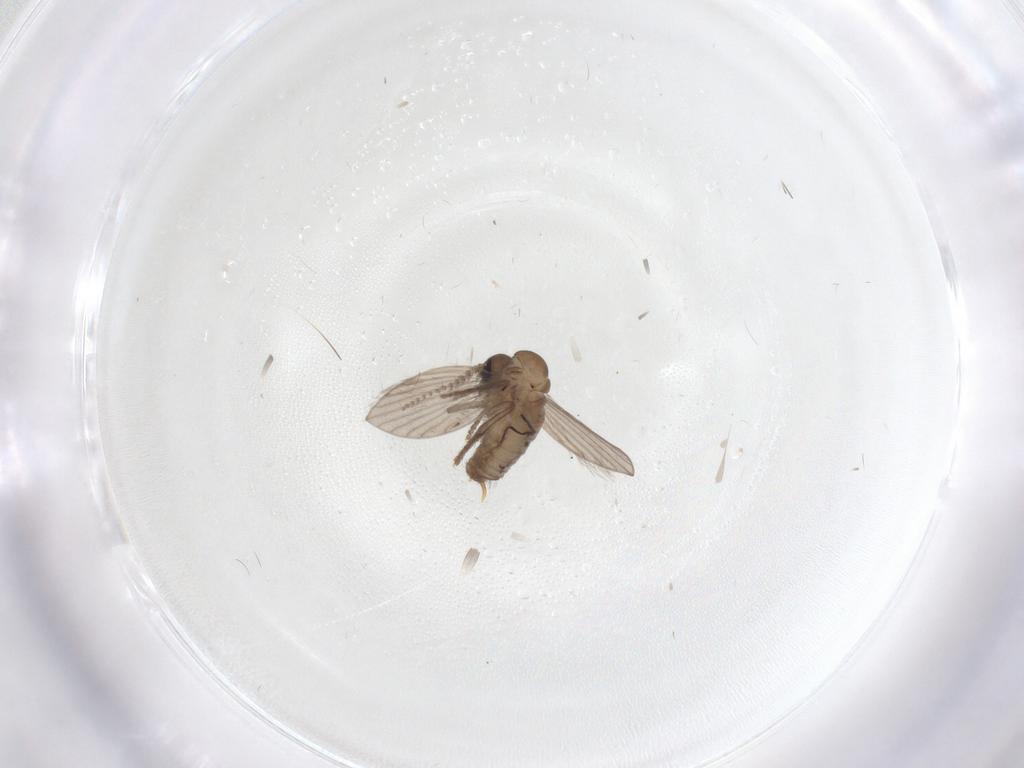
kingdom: Animalia
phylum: Arthropoda
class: Insecta
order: Diptera
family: Psychodidae
